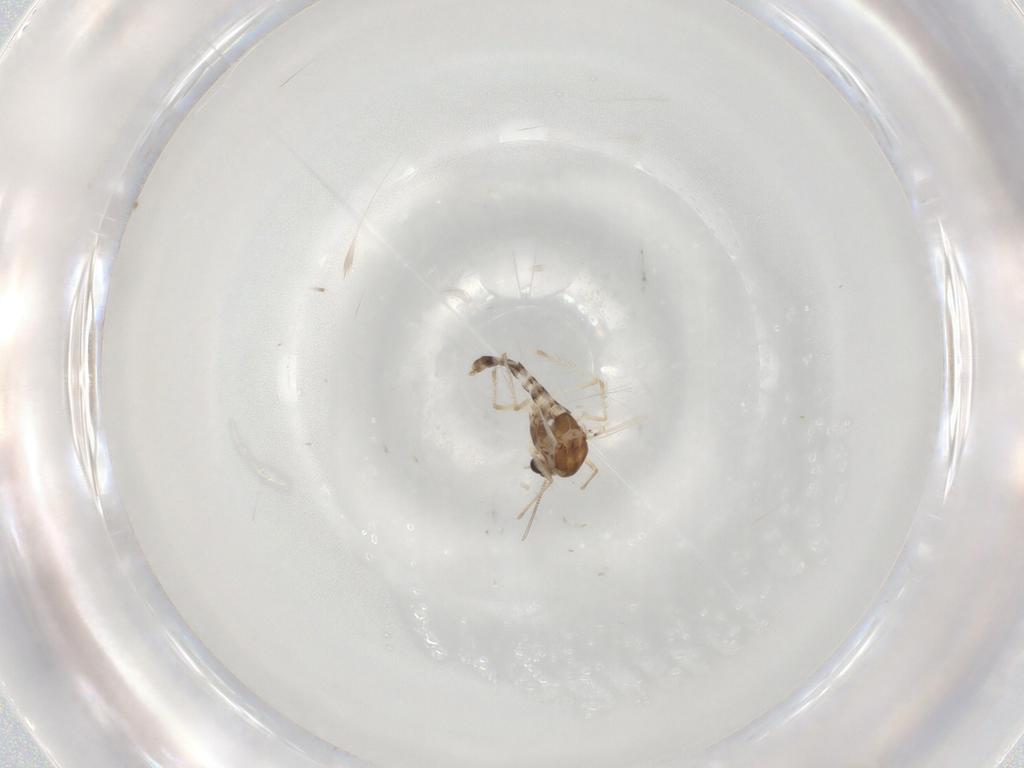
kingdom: Animalia
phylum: Arthropoda
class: Insecta
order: Diptera
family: Chironomidae
